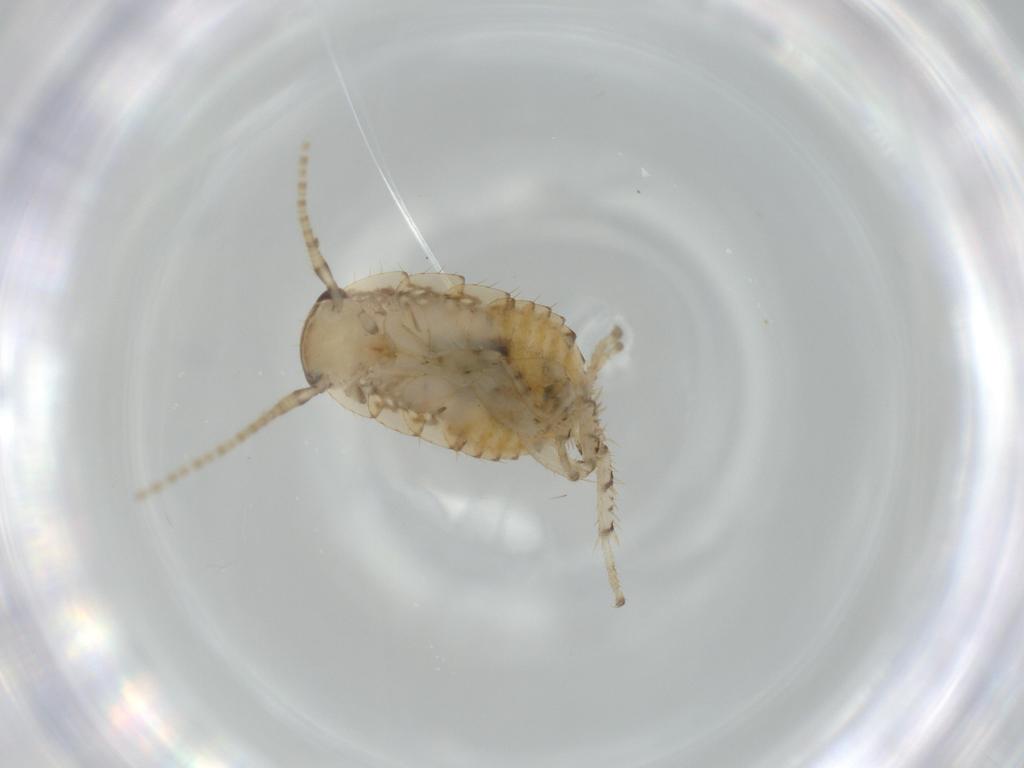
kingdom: Animalia
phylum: Arthropoda
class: Insecta
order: Blattodea
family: Ectobiidae
